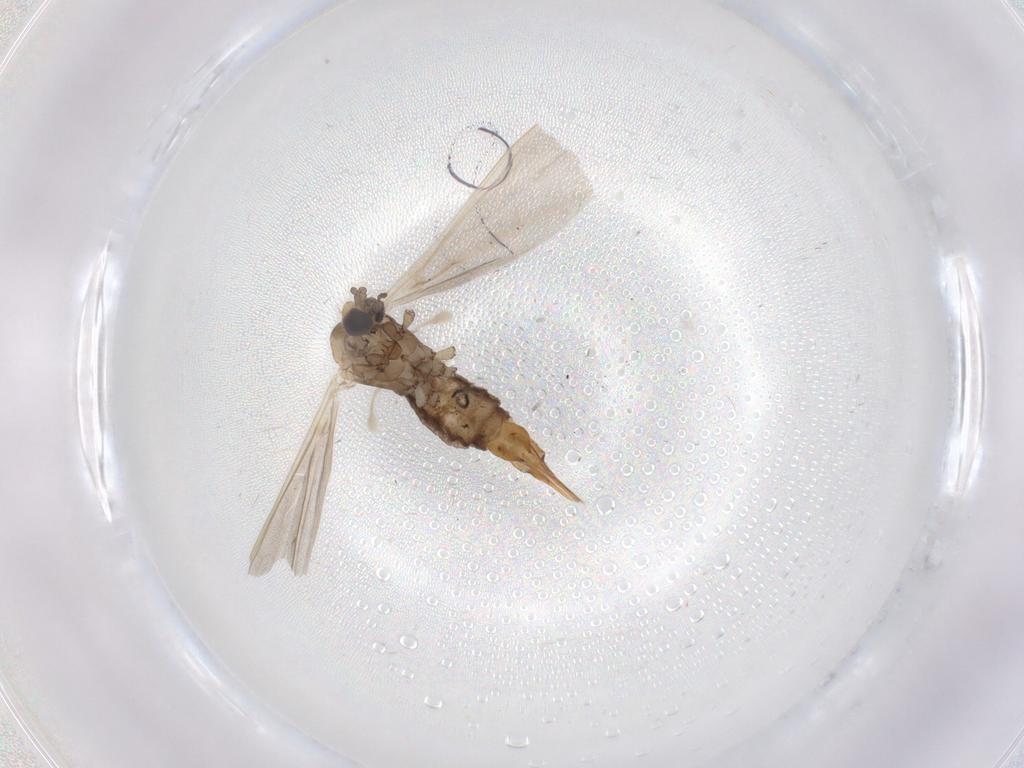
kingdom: Animalia
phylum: Arthropoda
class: Insecta
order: Diptera
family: Limoniidae
